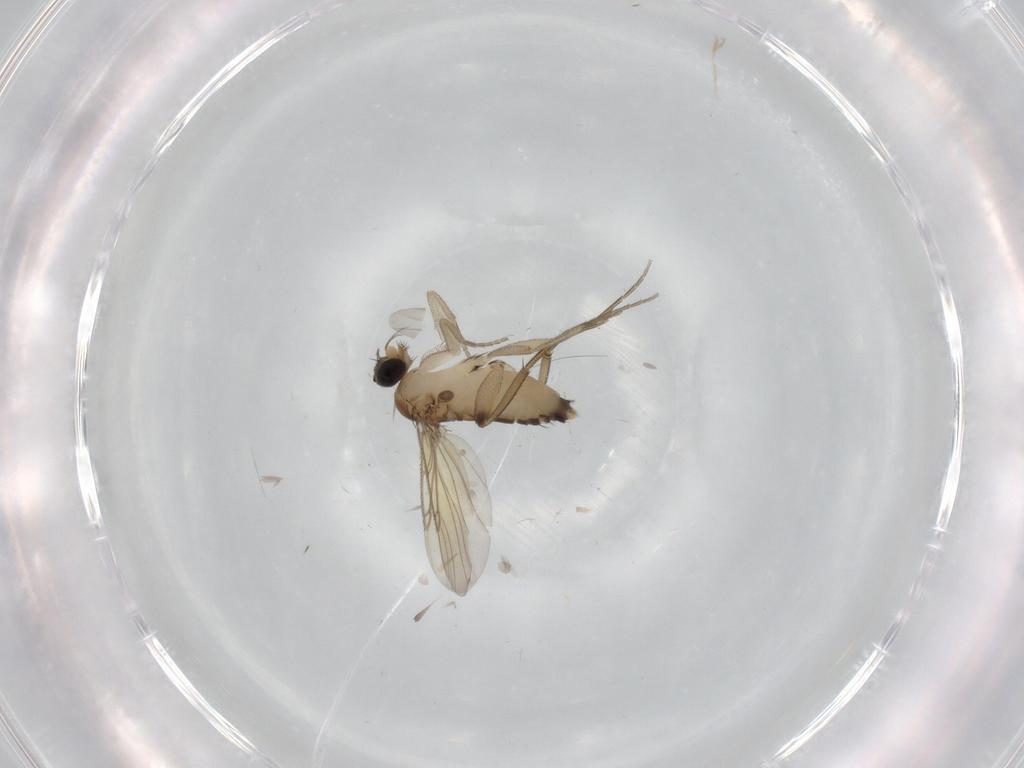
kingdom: Animalia
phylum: Arthropoda
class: Insecta
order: Diptera
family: Phoridae
